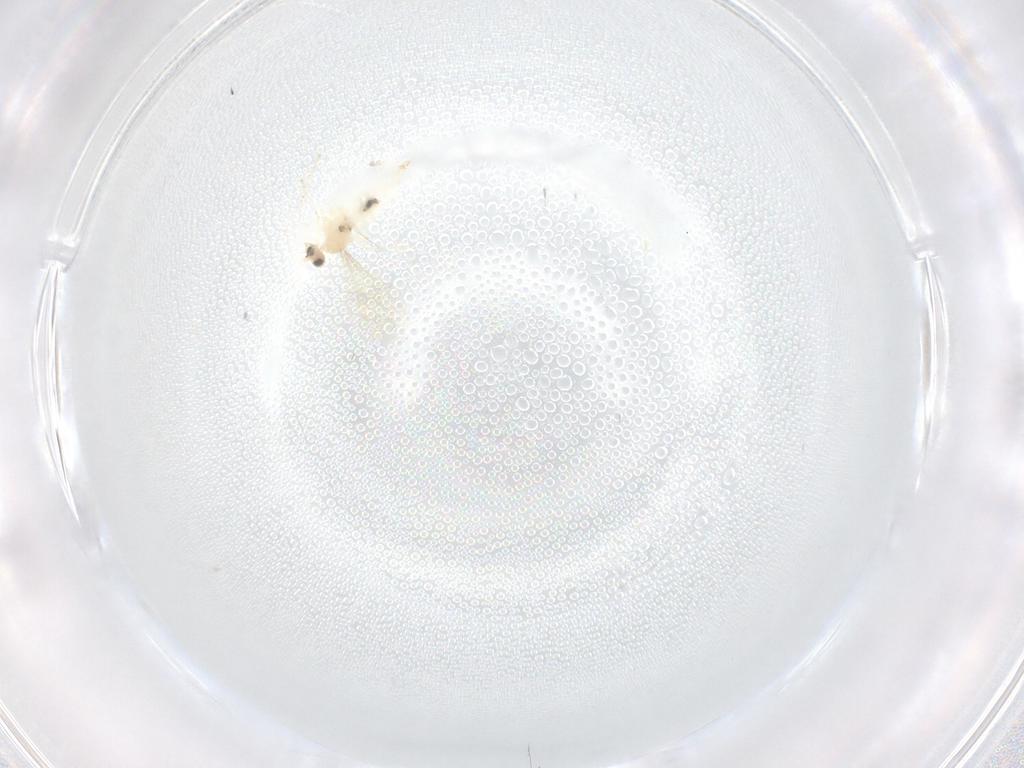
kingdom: Animalia
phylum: Arthropoda
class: Insecta
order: Diptera
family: Chironomidae
